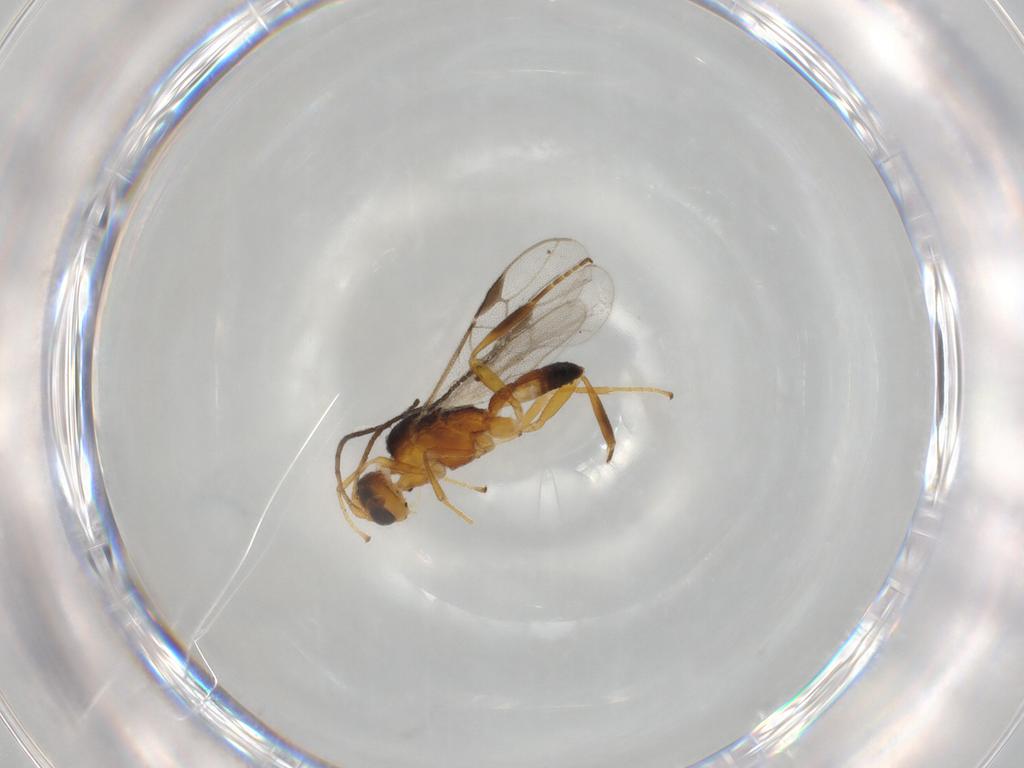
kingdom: Animalia
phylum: Arthropoda
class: Insecta
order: Hymenoptera
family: Braconidae
